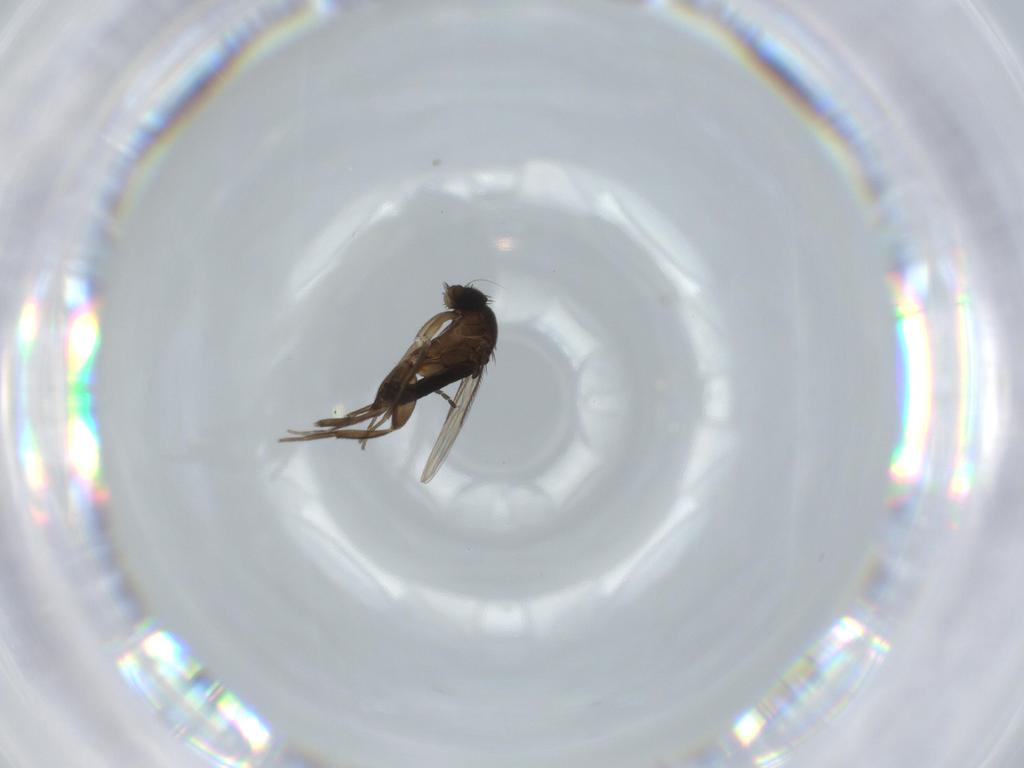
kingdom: Animalia
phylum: Arthropoda
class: Insecta
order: Diptera
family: Phoridae
